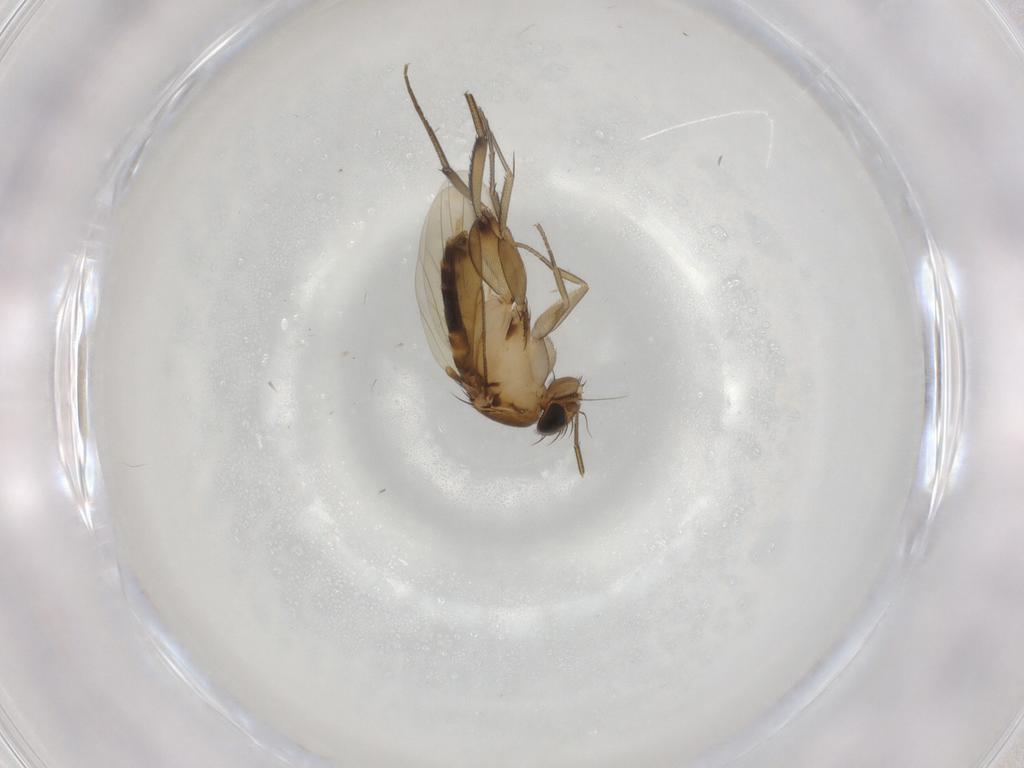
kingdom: Animalia
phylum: Arthropoda
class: Insecta
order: Diptera
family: Phoridae
